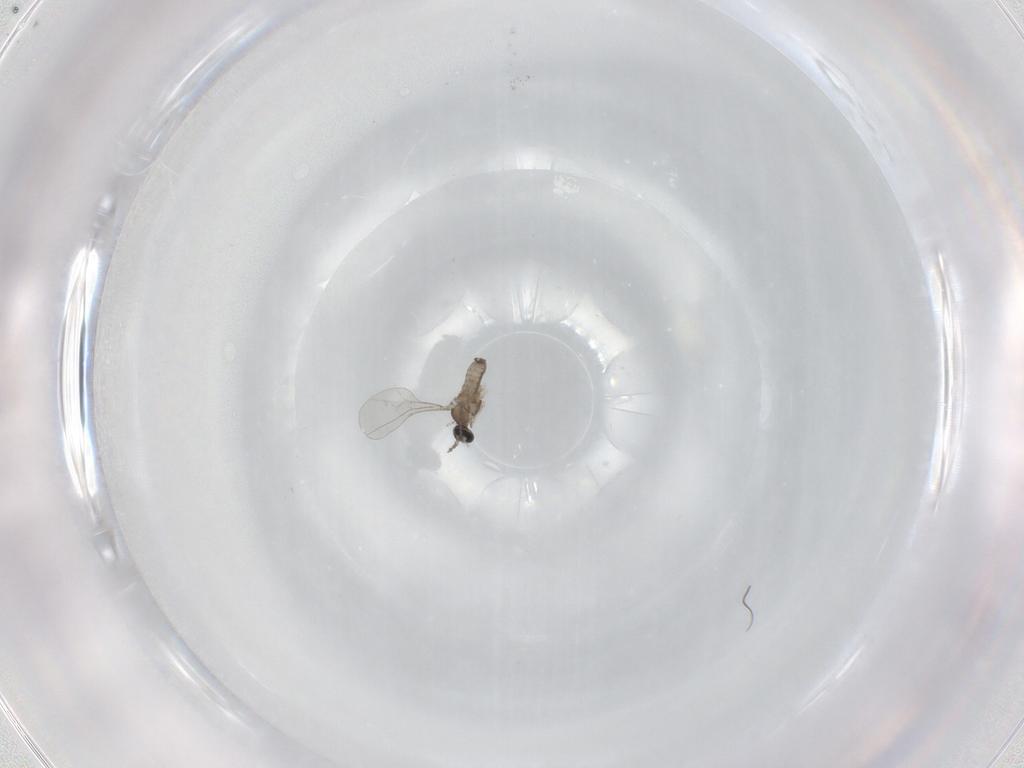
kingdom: Animalia
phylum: Arthropoda
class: Insecta
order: Diptera
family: Cecidomyiidae
